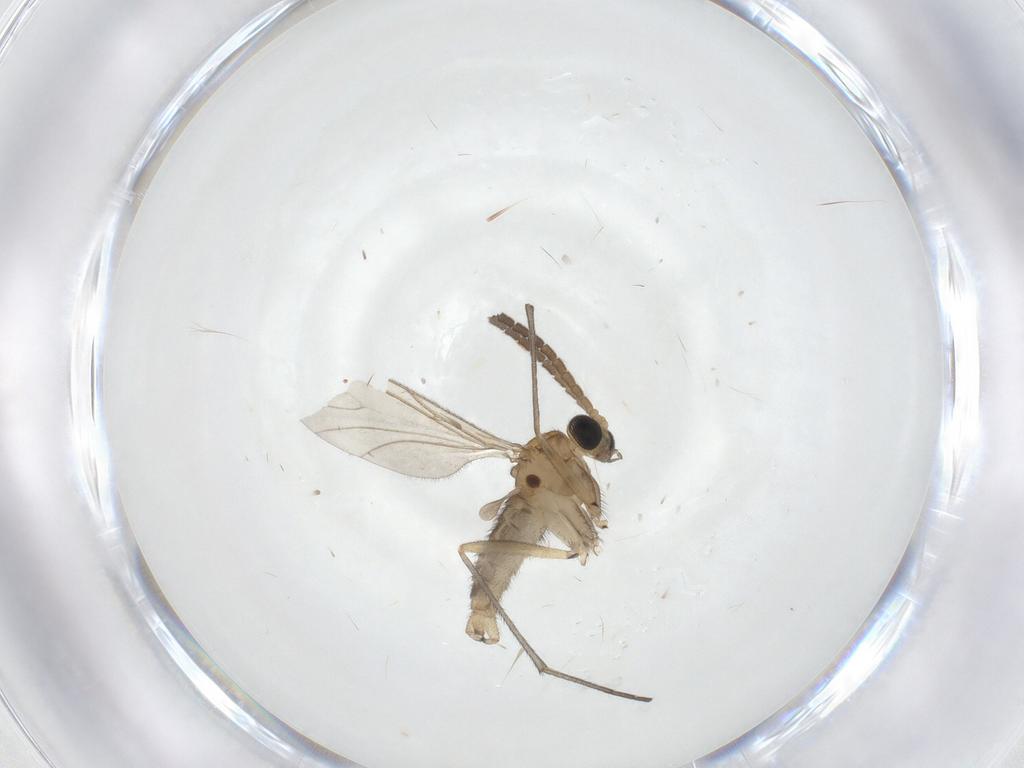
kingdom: Animalia
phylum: Arthropoda
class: Insecta
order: Diptera
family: Sciaridae
